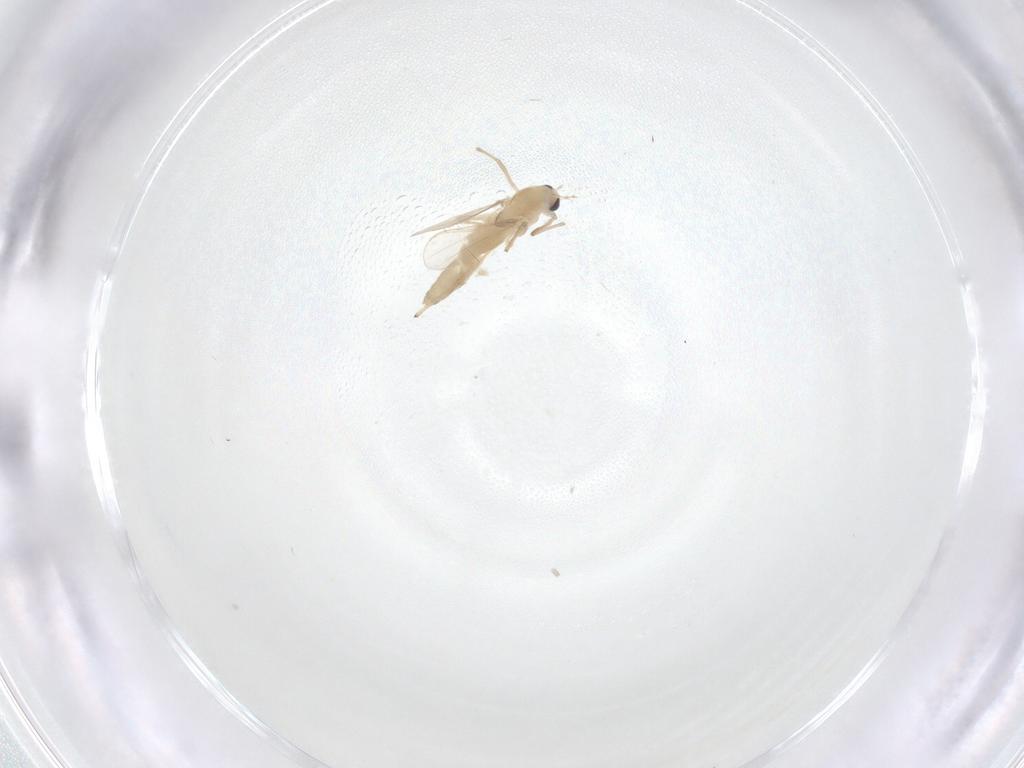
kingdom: Animalia
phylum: Arthropoda
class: Insecta
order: Diptera
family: Chironomidae
